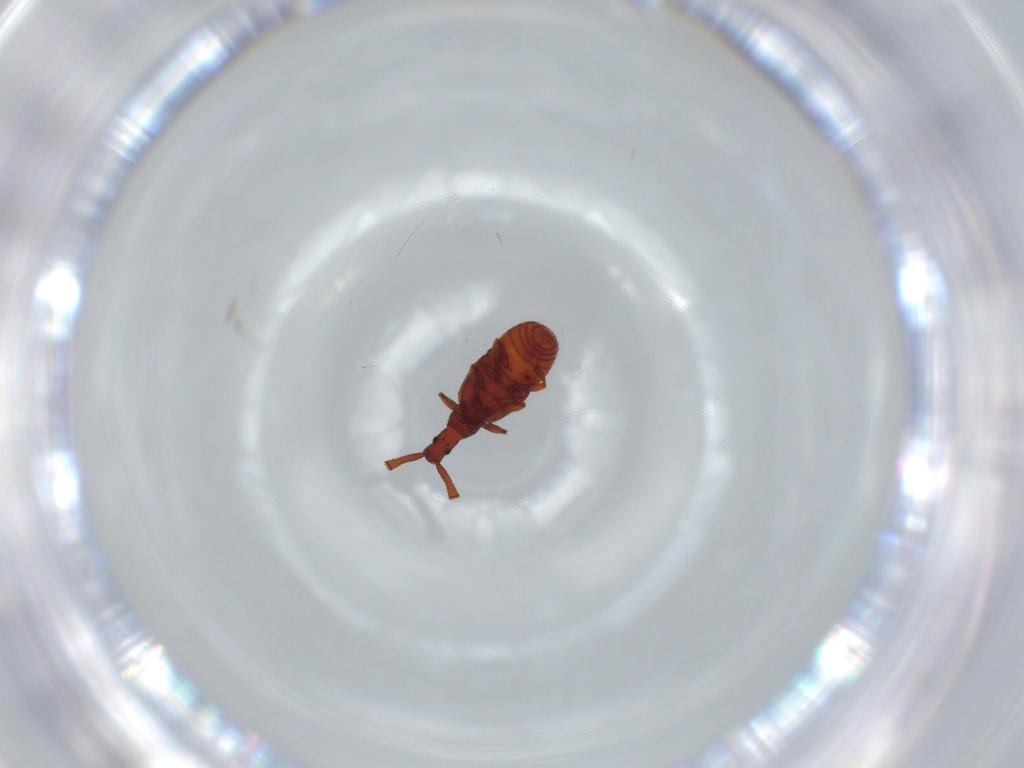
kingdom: Animalia
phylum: Arthropoda
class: Insecta
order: Coleoptera
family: Staphylinidae
